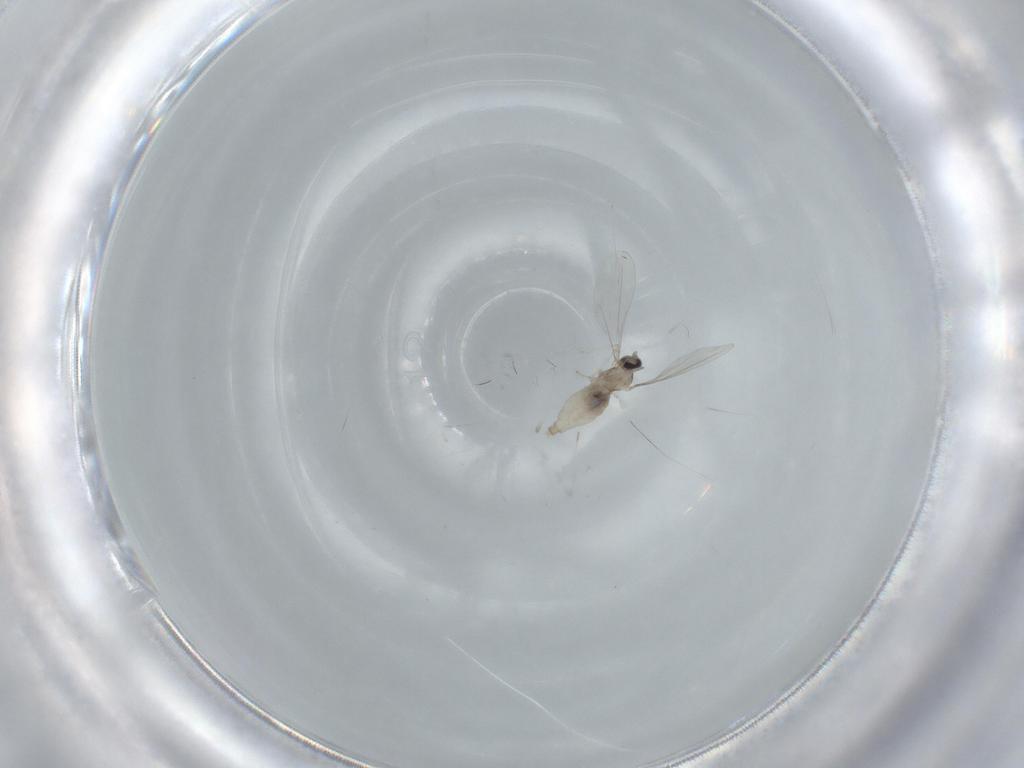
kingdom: Animalia
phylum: Arthropoda
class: Insecta
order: Diptera
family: Cecidomyiidae
